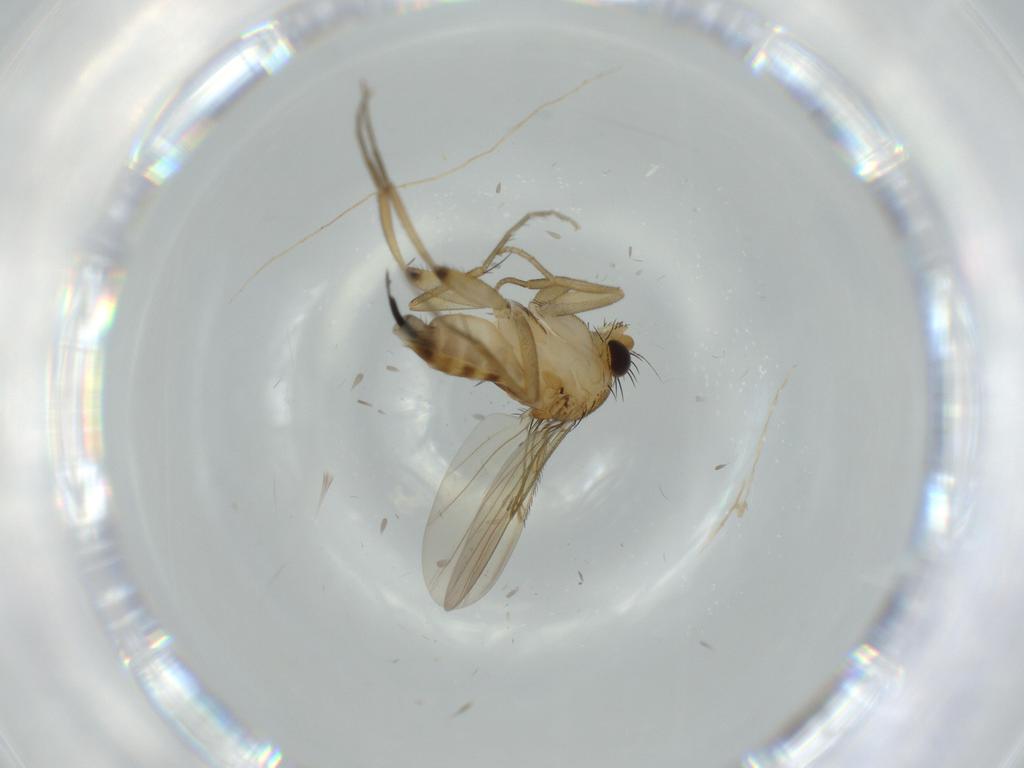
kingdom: Animalia
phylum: Arthropoda
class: Insecta
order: Diptera
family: Phoridae
